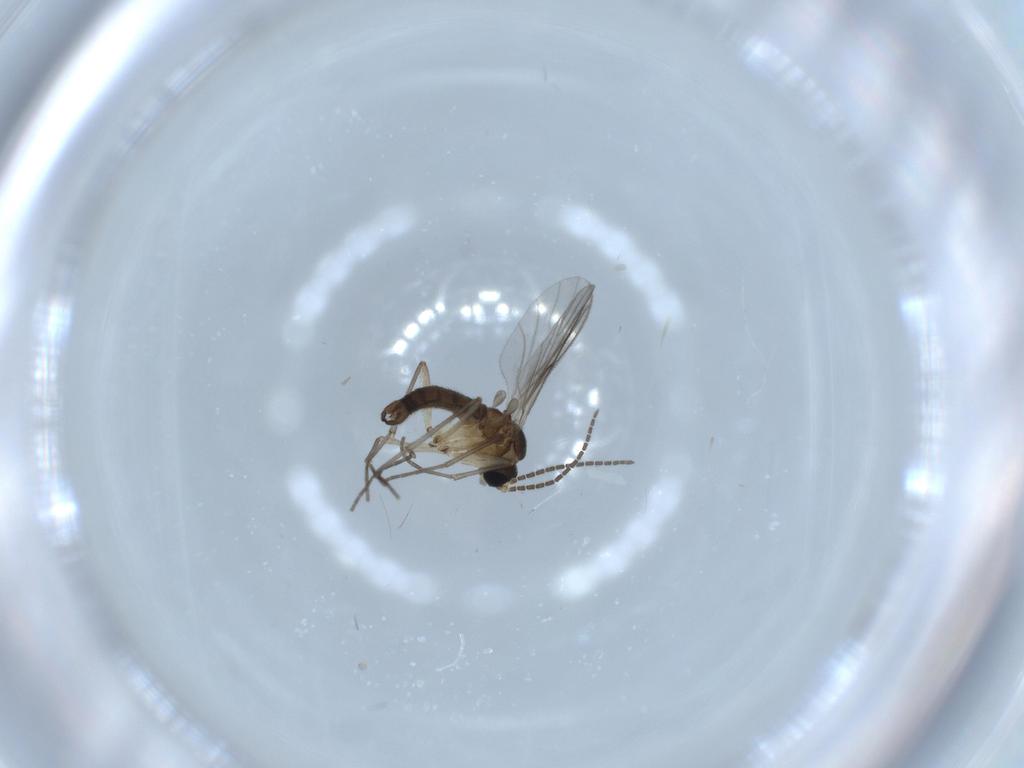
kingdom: Animalia
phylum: Arthropoda
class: Insecta
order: Diptera
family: Sciaridae
